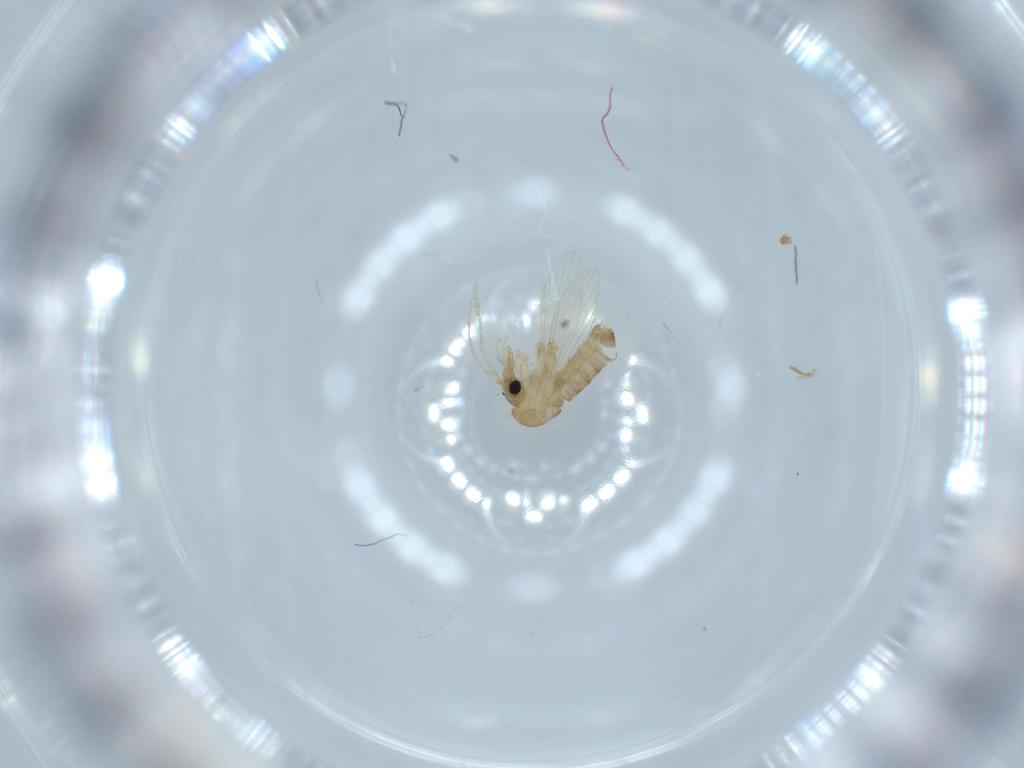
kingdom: Animalia
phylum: Arthropoda
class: Insecta
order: Diptera
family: Psychodidae
